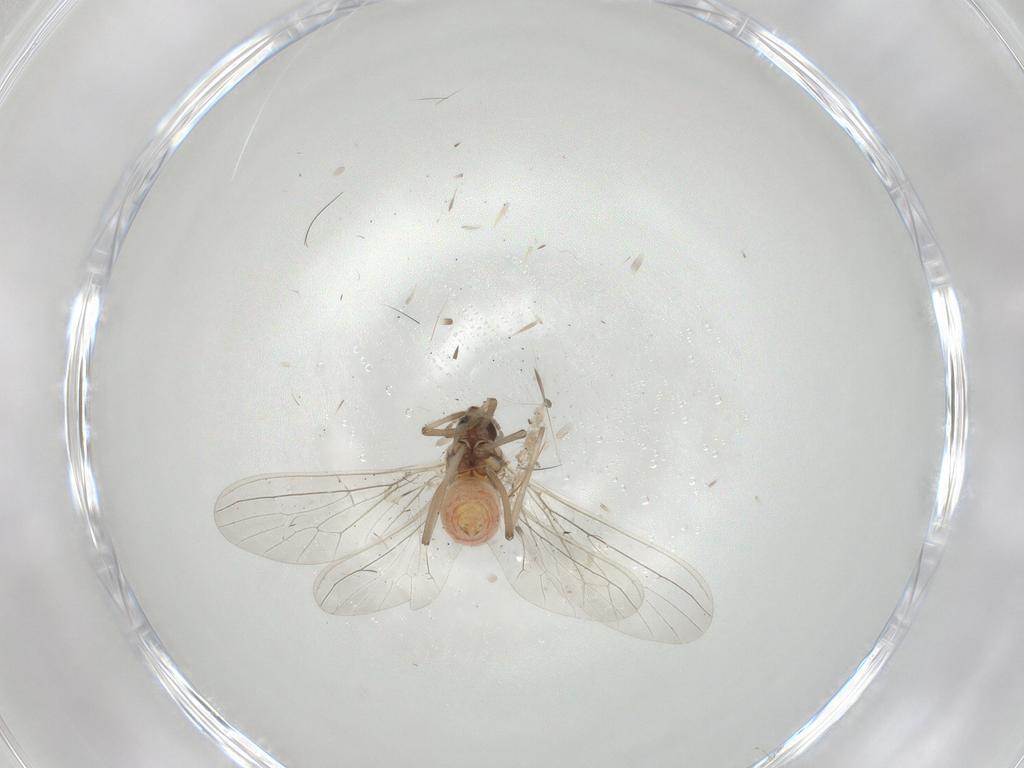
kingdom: Animalia
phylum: Arthropoda
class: Insecta
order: Neuroptera
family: Coniopterygidae
